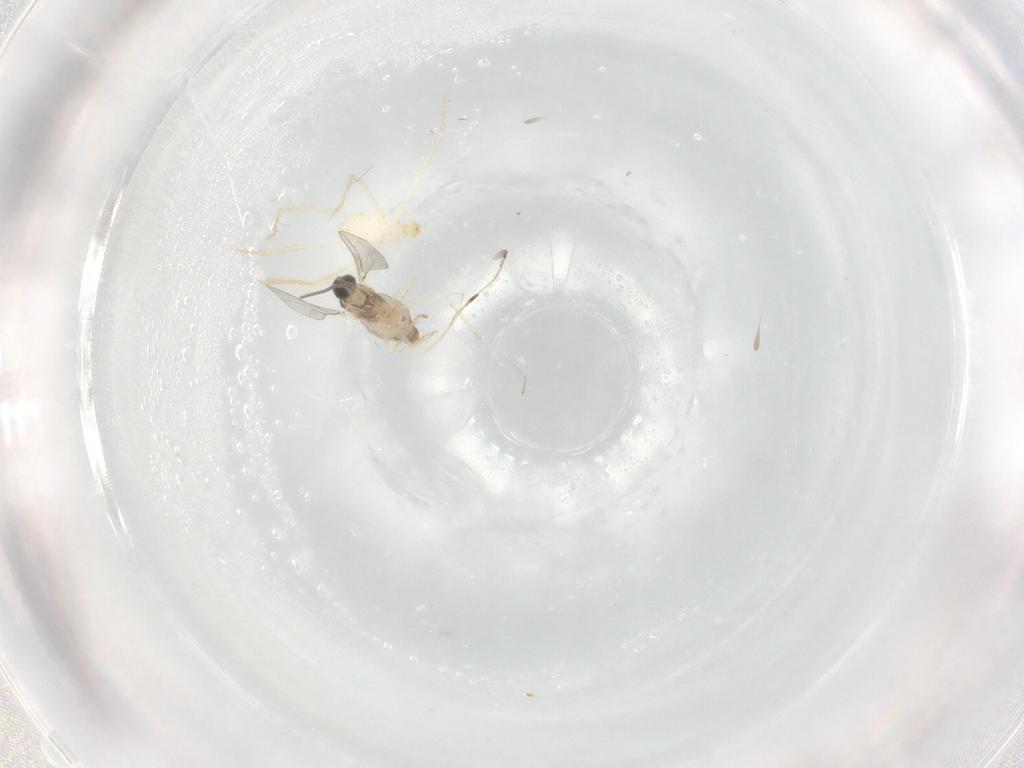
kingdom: Animalia
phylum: Arthropoda
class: Insecta
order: Diptera
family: Cecidomyiidae
